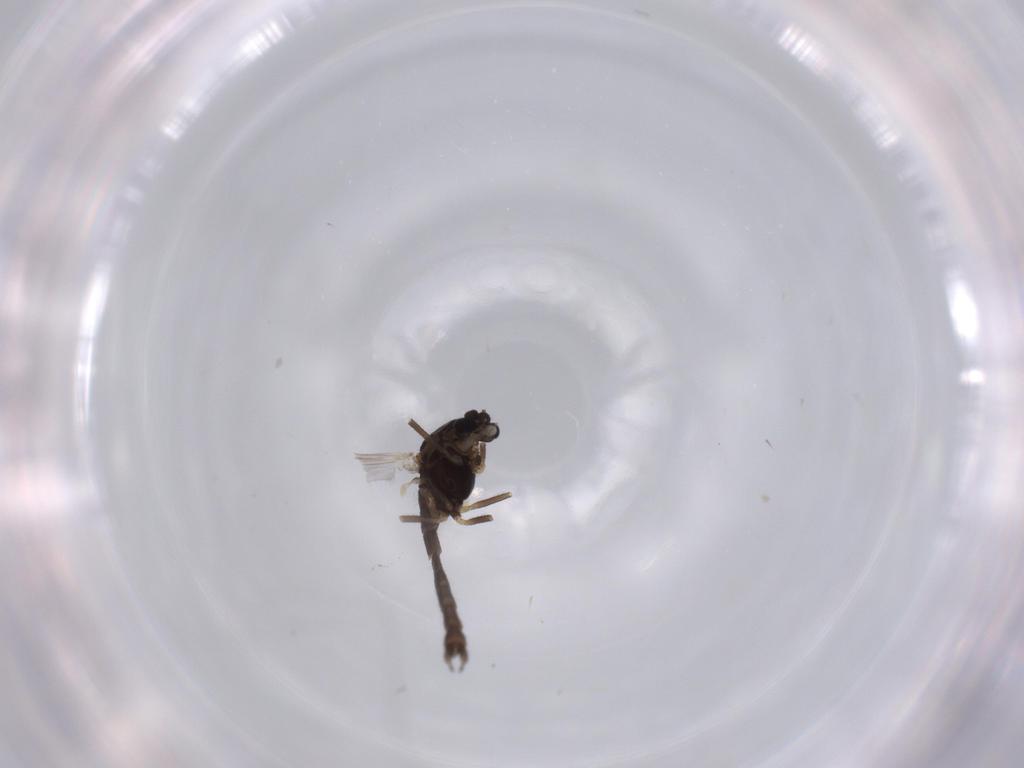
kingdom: Animalia
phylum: Arthropoda
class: Insecta
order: Diptera
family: Chironomidae
